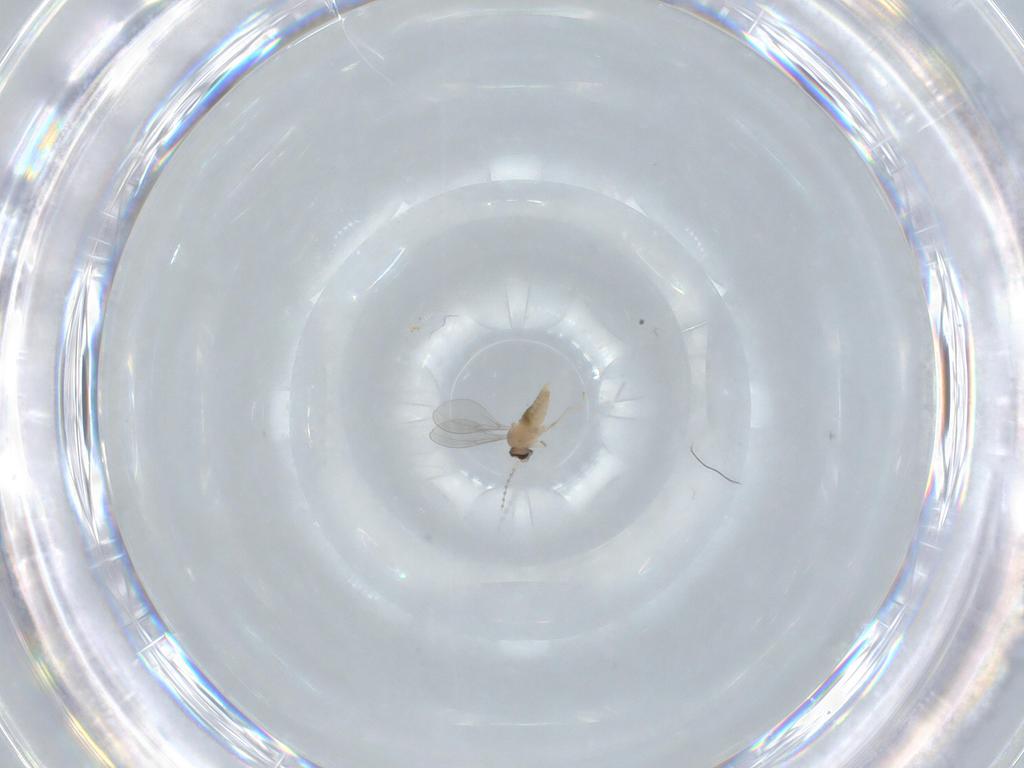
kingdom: Animalia
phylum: Arthropoda
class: Insecta
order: Diptera
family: Cecidomyiidae
